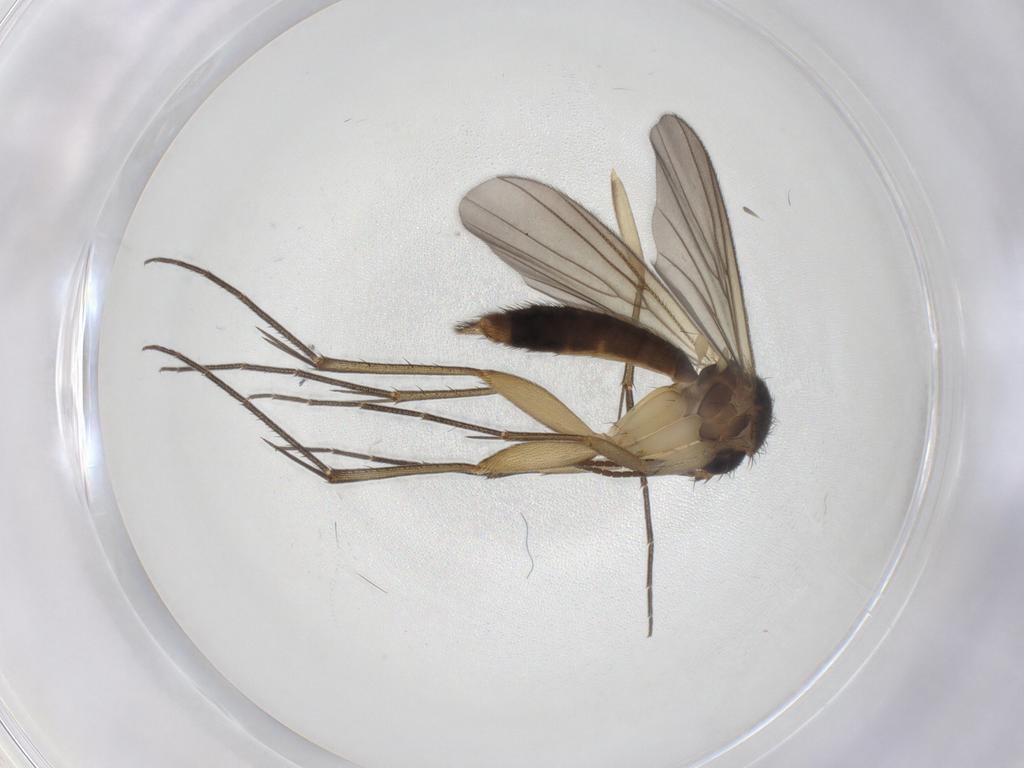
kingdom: Animalia
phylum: Arthropoda
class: Insecta
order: Diptera
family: Mycetophilidae
